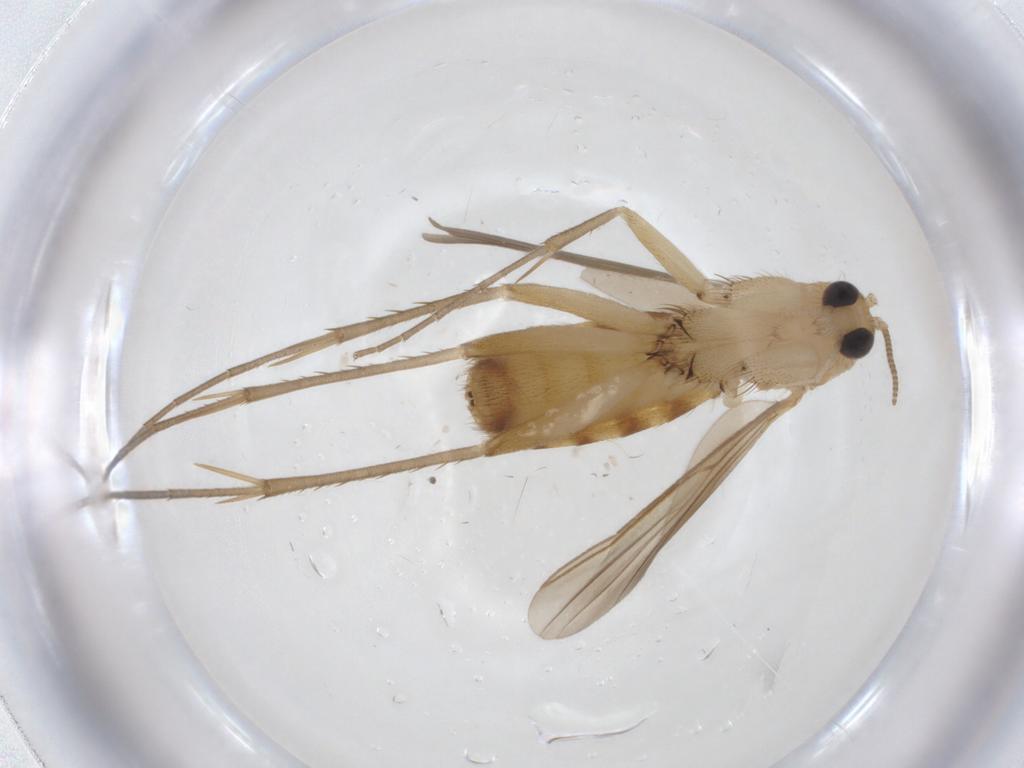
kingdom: Animalia
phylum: Arthropoda
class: Insecta
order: Diptera
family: Mycetophilidae
